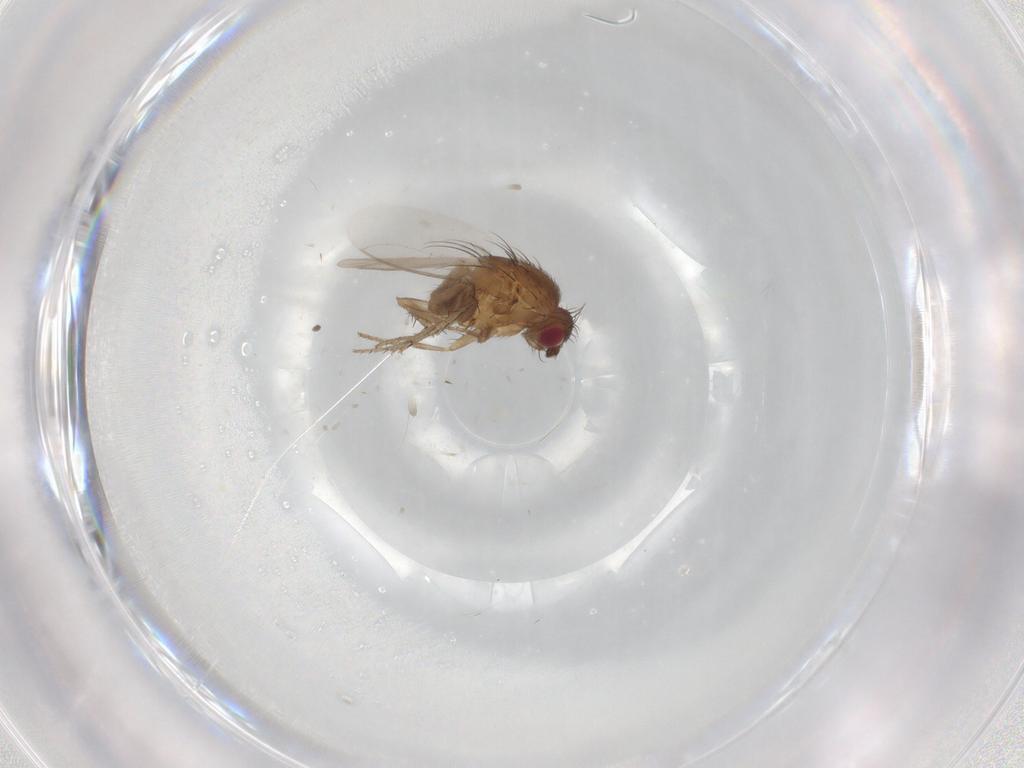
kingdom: Animalia
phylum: Arthropoda
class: Insecta
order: Diptera
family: Sphaeroceridae
